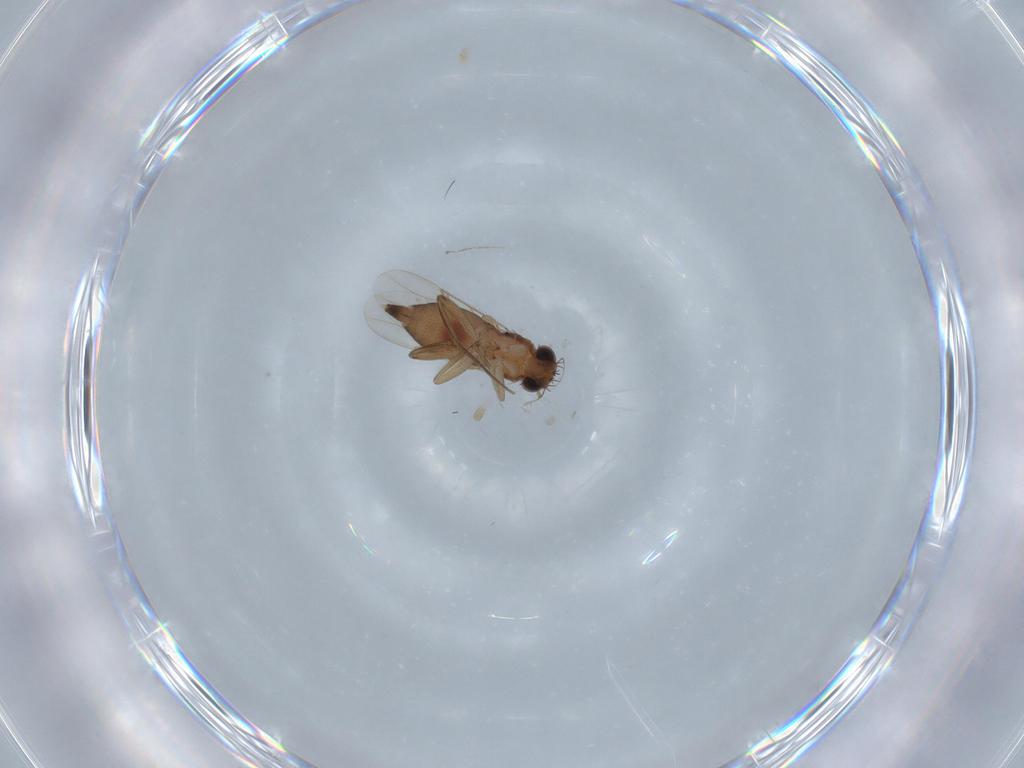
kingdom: Animalia
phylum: Arthropoda
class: Insecta
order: Diptera
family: Phoridae
